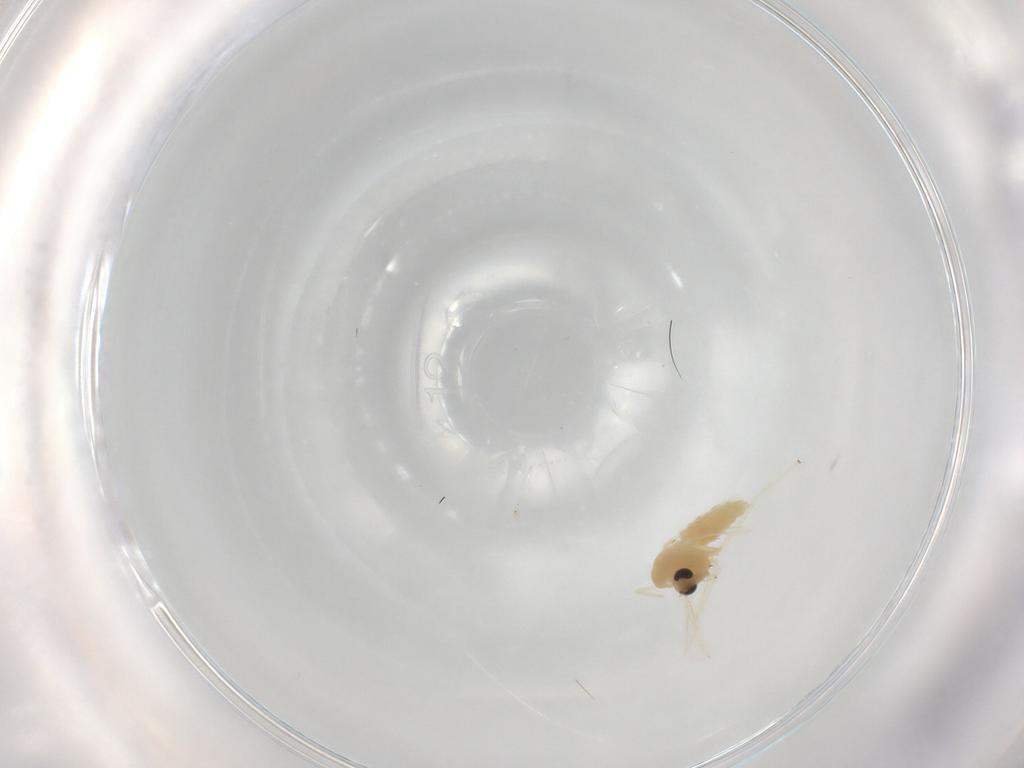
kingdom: Animalia
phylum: Arthropoda
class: Insecta
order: Diptera
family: Chironomidae
